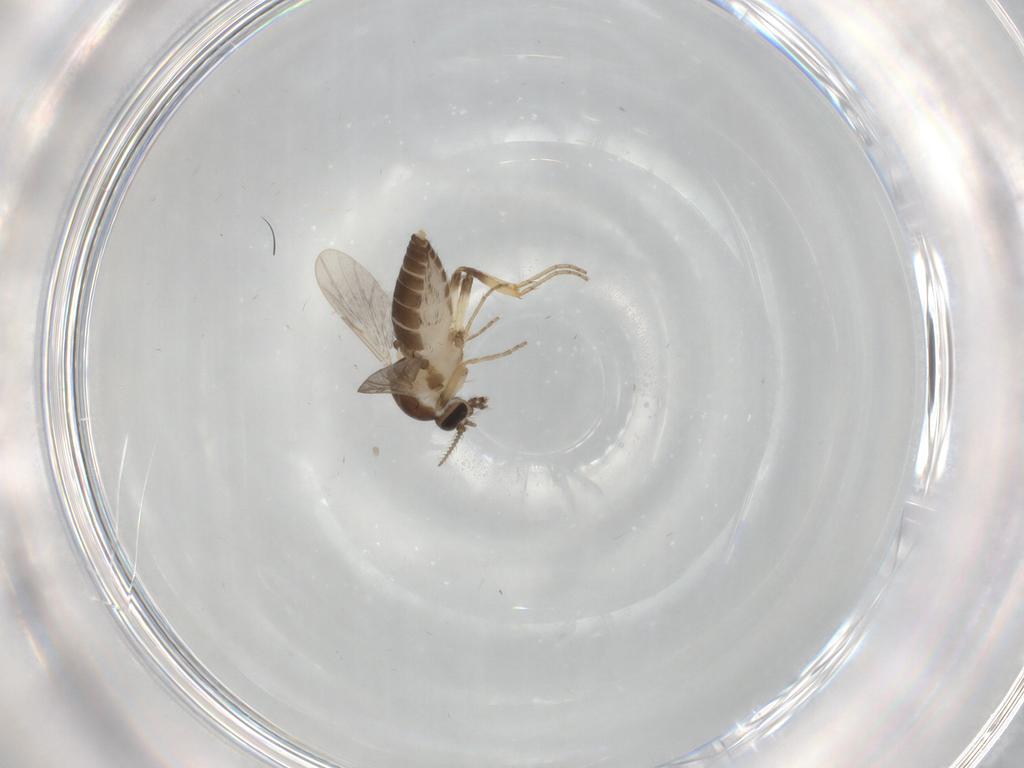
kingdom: Animalia
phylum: Arthropoda
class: Insecta
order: Diptera
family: Ceratopogonidae
